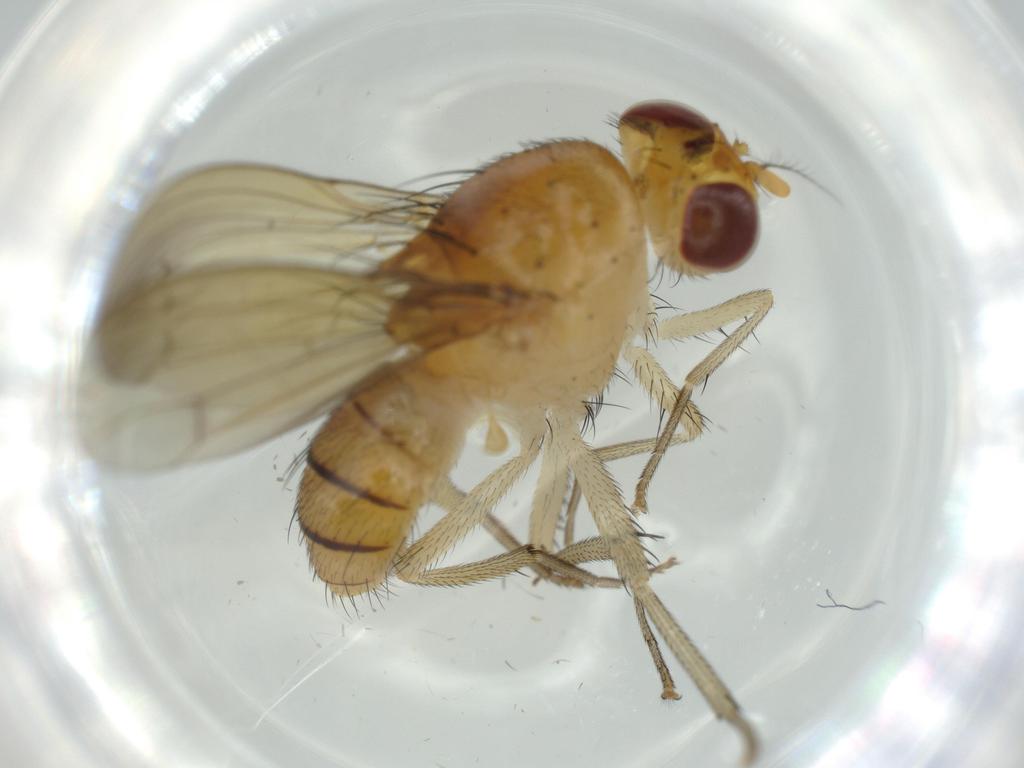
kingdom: Animalia
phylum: Arthropoda
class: Insecta
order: Diptera
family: Drosophilidae
